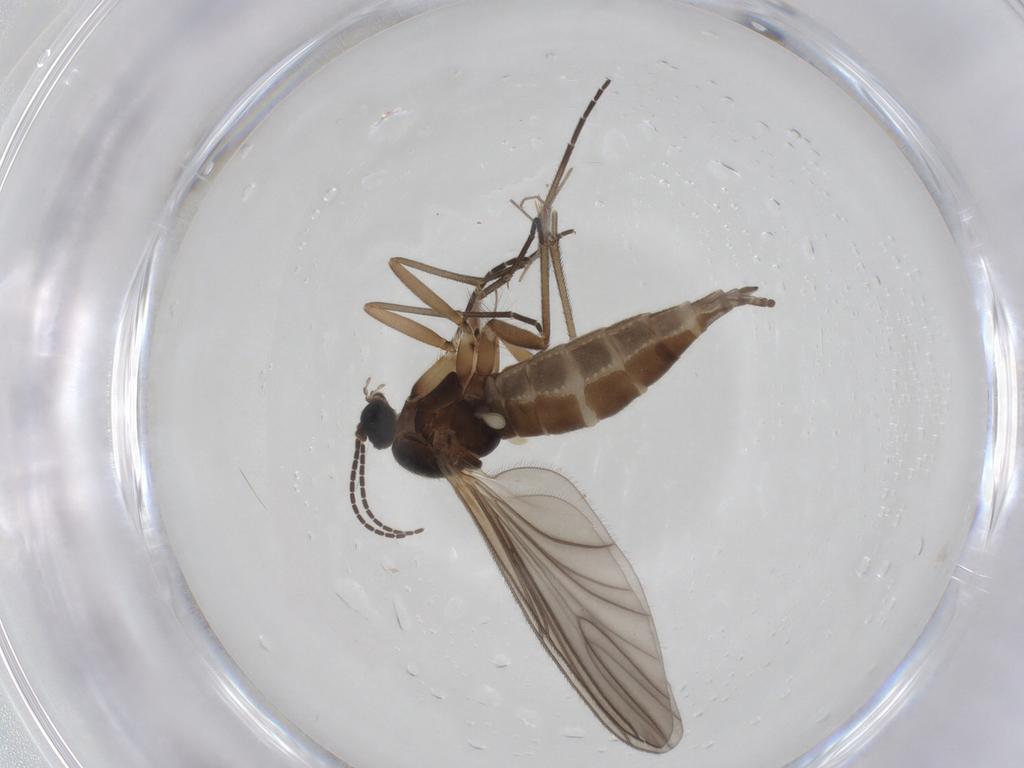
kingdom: Animalia
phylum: Arthropoda
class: Insecta
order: Diptera
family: Sciaridae
